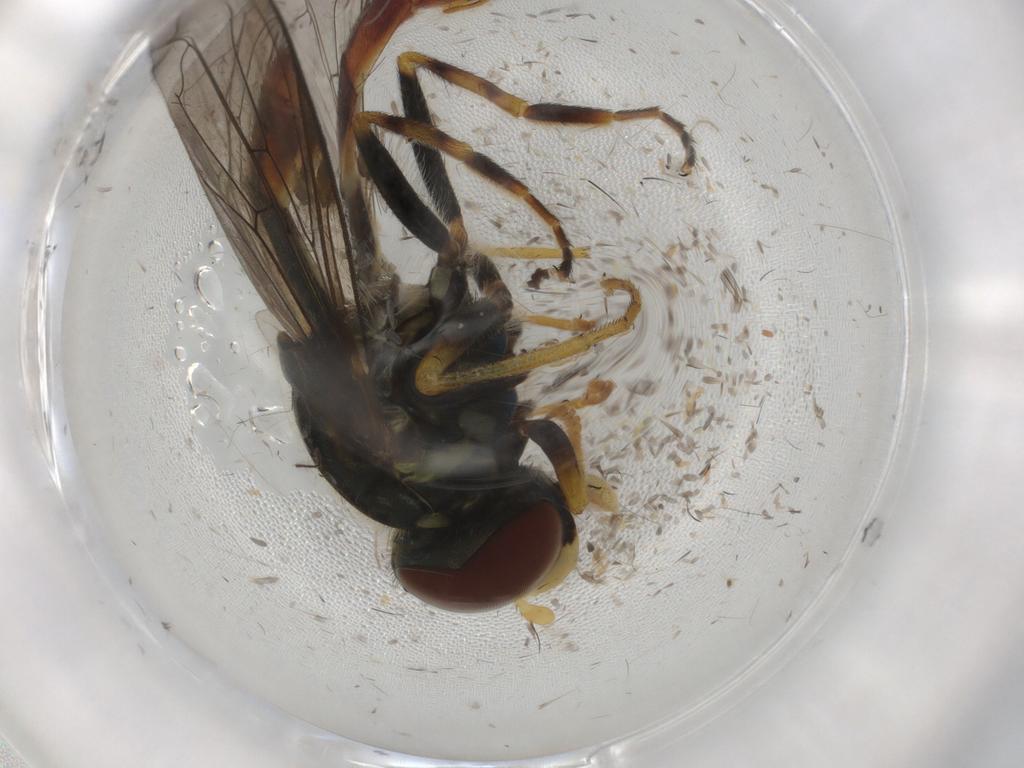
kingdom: Animalia
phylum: Arthropoda
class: Insecta
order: Diptera
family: Syrphidae
